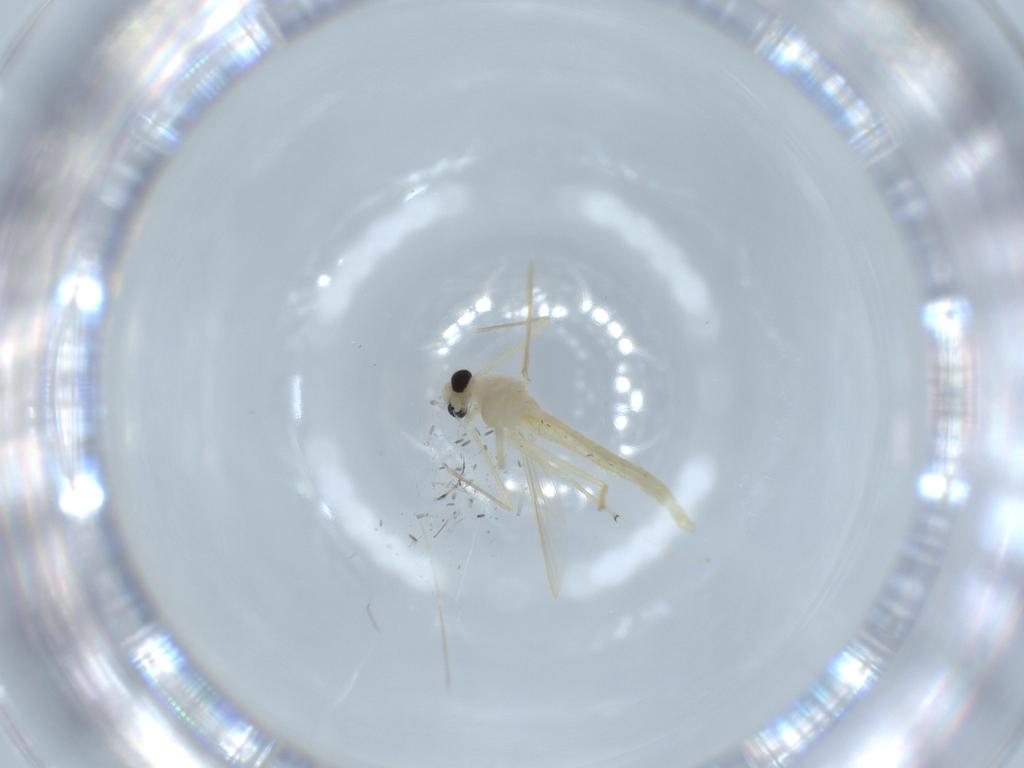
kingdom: Animalia
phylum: Arthropoda
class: Insecta
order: Diptera
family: Chironomidae
